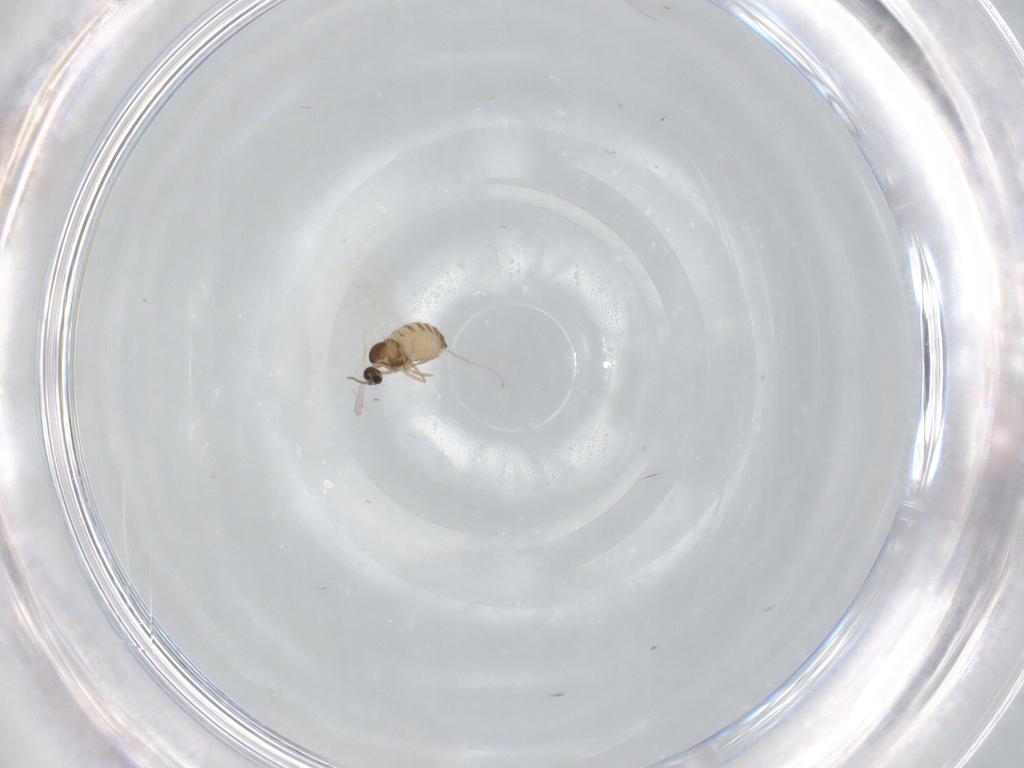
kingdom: Animalia
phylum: Arthropoda
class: Insecta
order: Diptera
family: Cecidomyiidae
